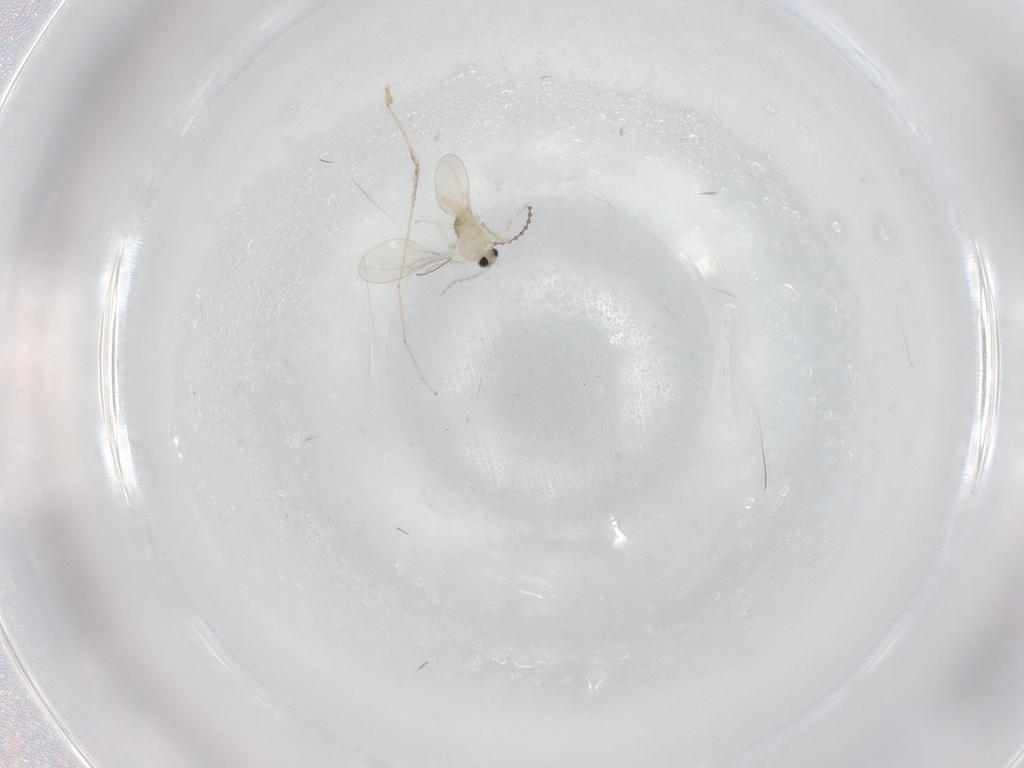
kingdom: Animalia
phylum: Arthropoda
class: Insecta
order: Diptera
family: Chironomidae
